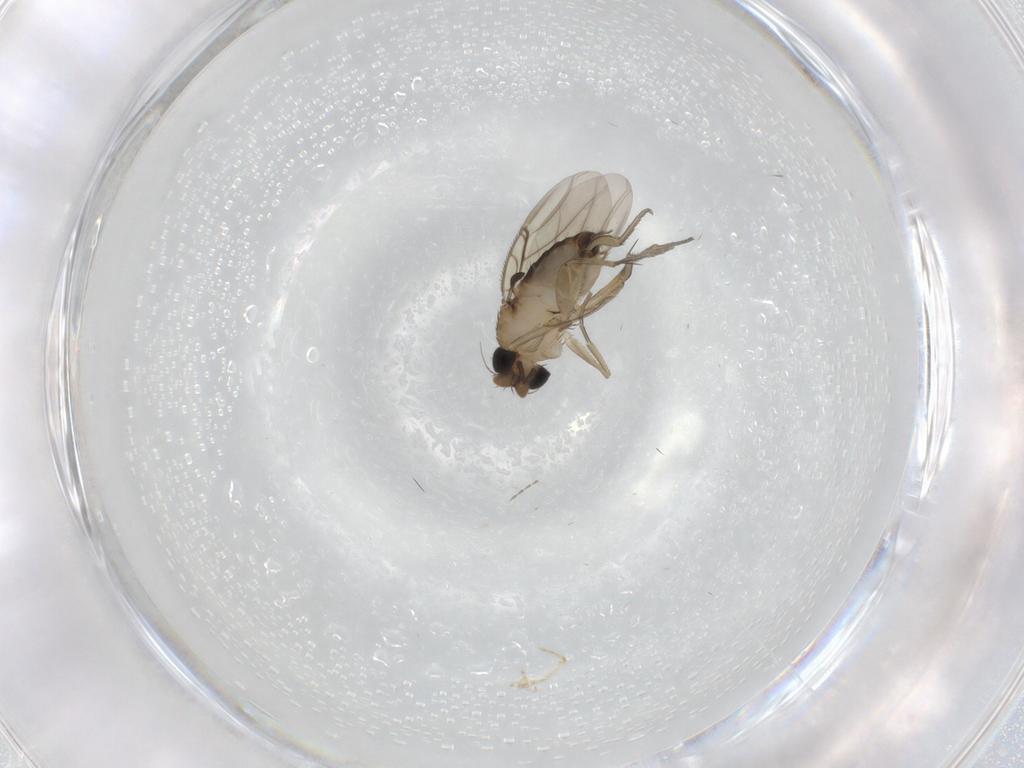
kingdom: Animalia
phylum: Arthropoda
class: Insecta
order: Diptera
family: Phoridae
